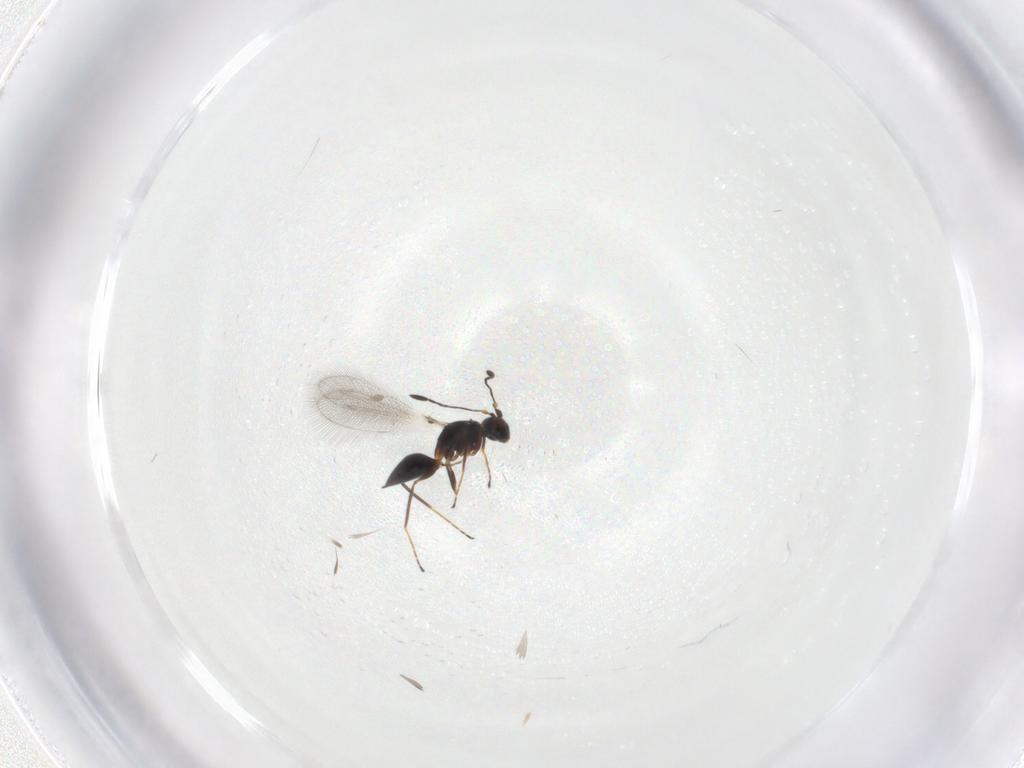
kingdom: Animalia
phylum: Arthropoda
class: Insecta
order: Hymenoptera
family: Mymaridae
